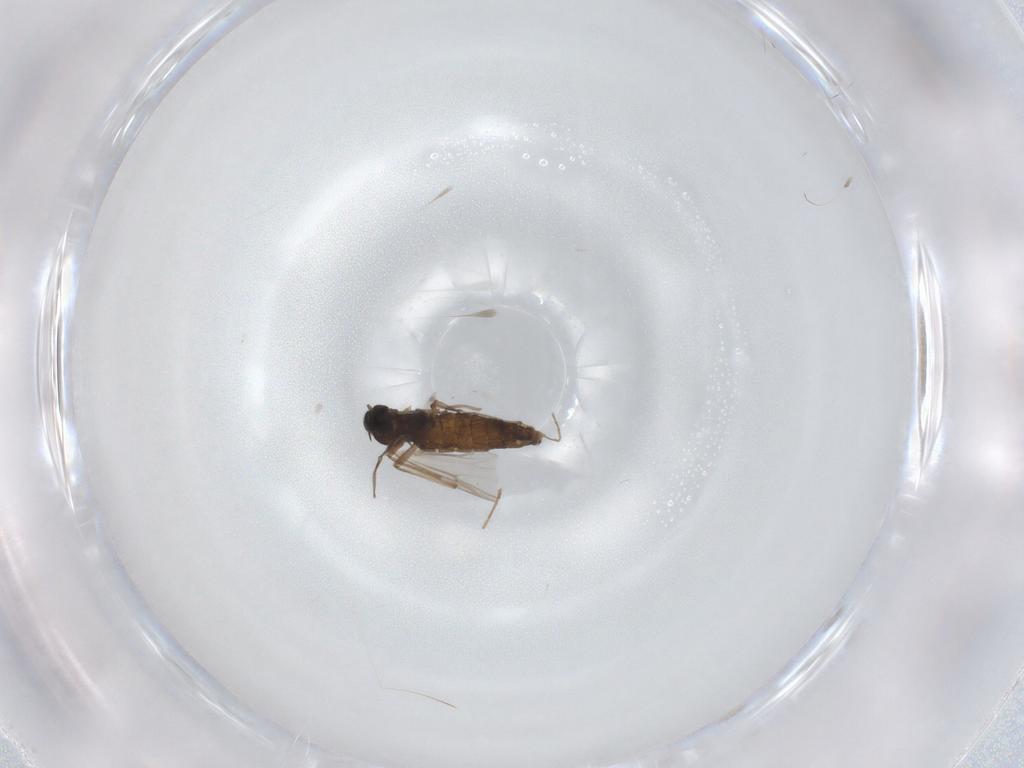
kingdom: Animalia
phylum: Arthropoda
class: Insecta
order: Diptera
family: Chironomidae
